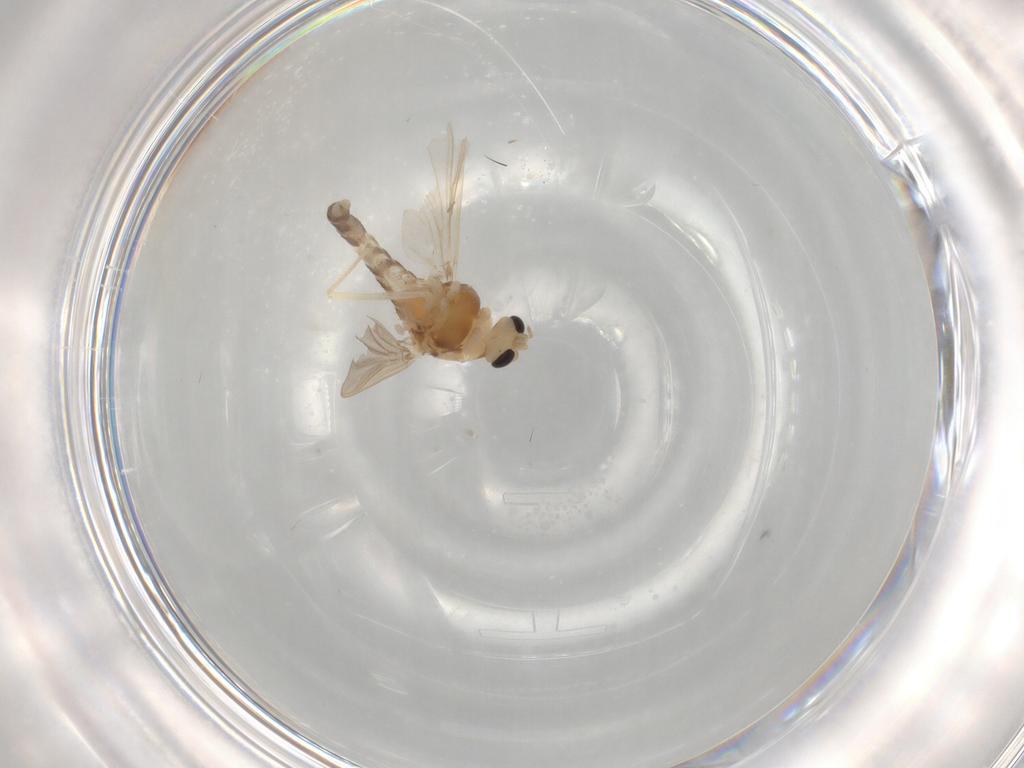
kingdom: Animalia
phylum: Arthropoda
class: Insecta
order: Diptera
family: Chironomidae
